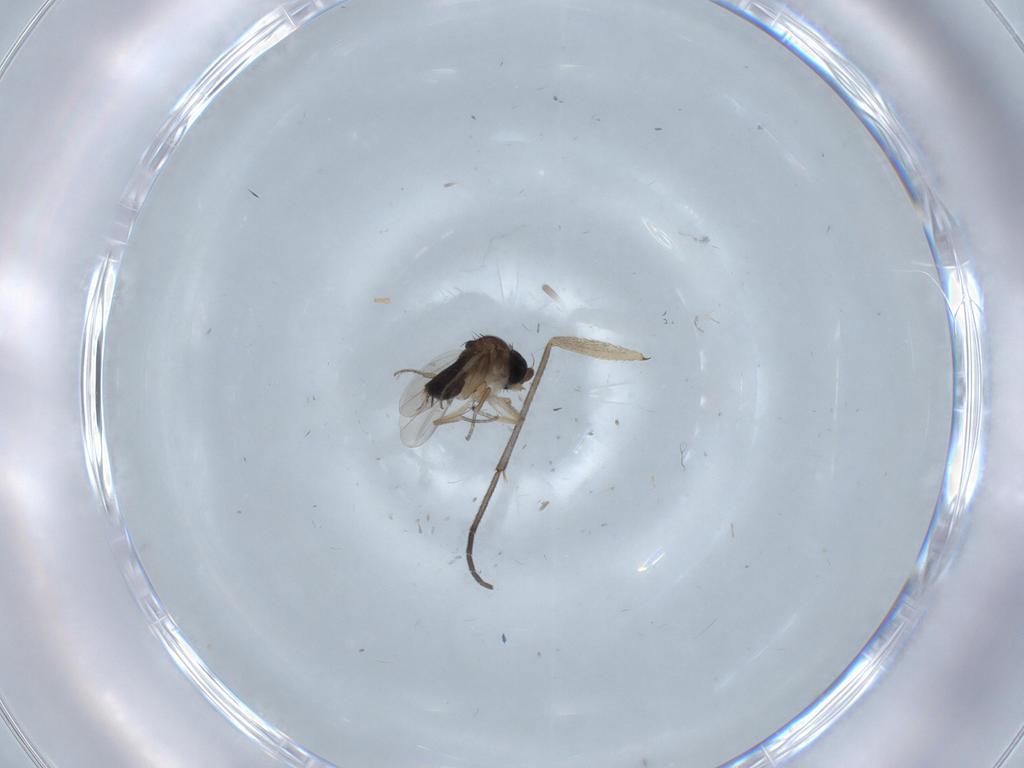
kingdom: Animalia
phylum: Arthropoda
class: Insecta
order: Diptera
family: Phoridae
